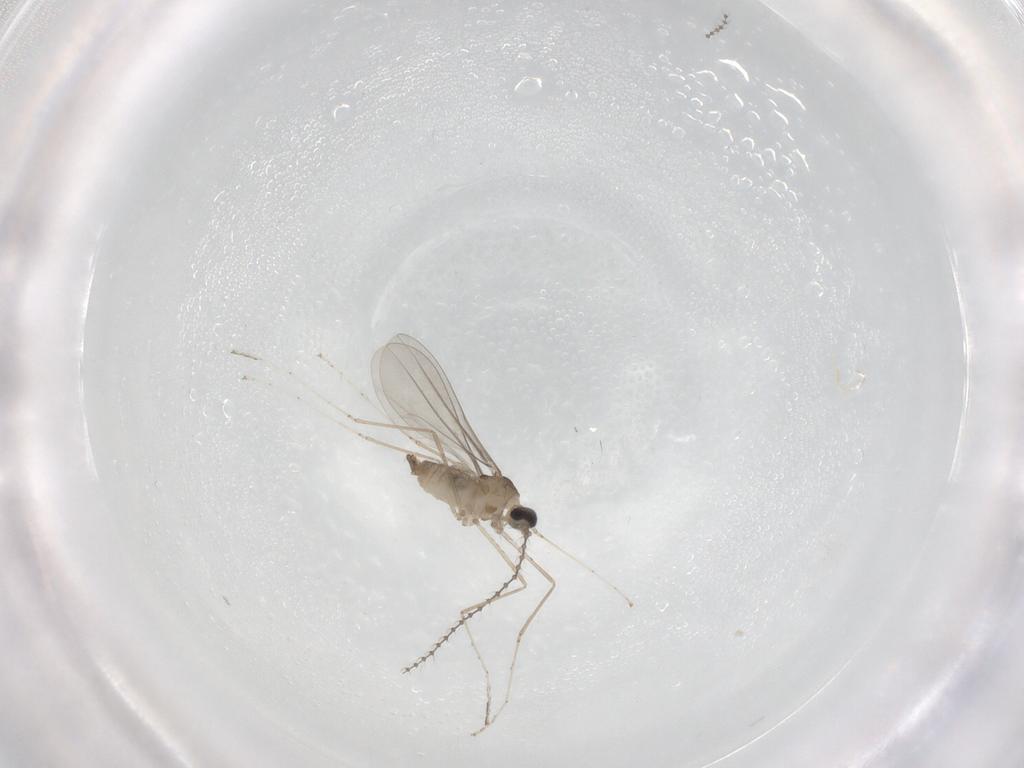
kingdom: Animalia
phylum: Arthropoda
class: Insecta
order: Diptera
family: Cecidomyiidae
